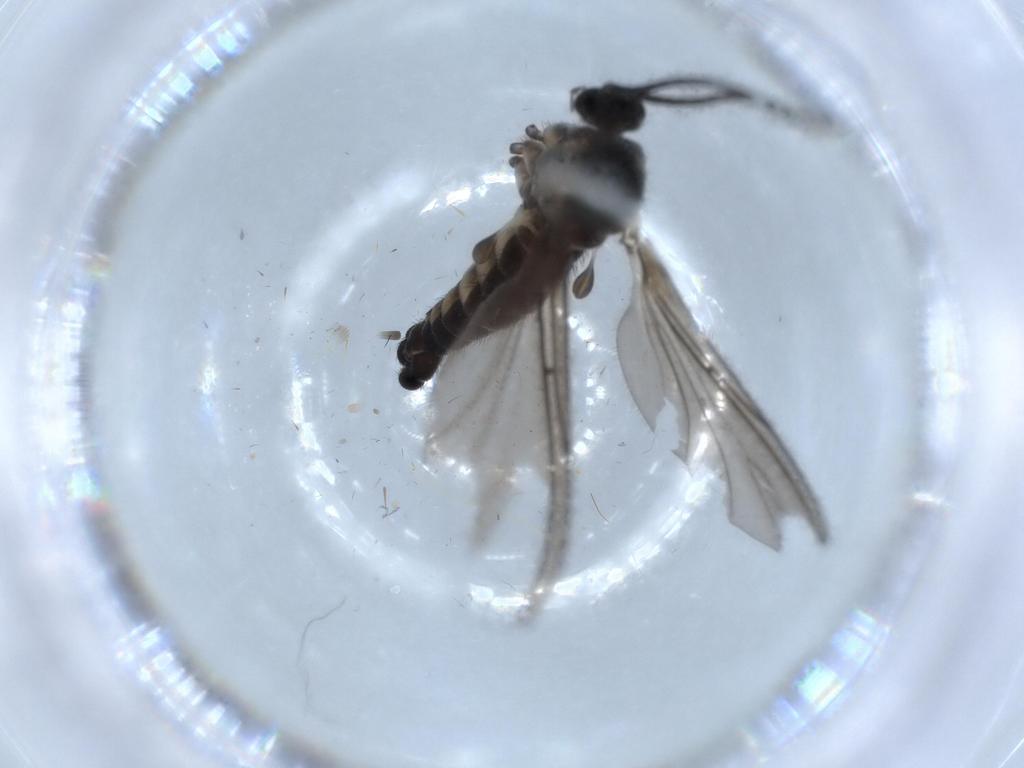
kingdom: Animalia
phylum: Arthropoda
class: Insecta
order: Diptera
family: Sciaridae
